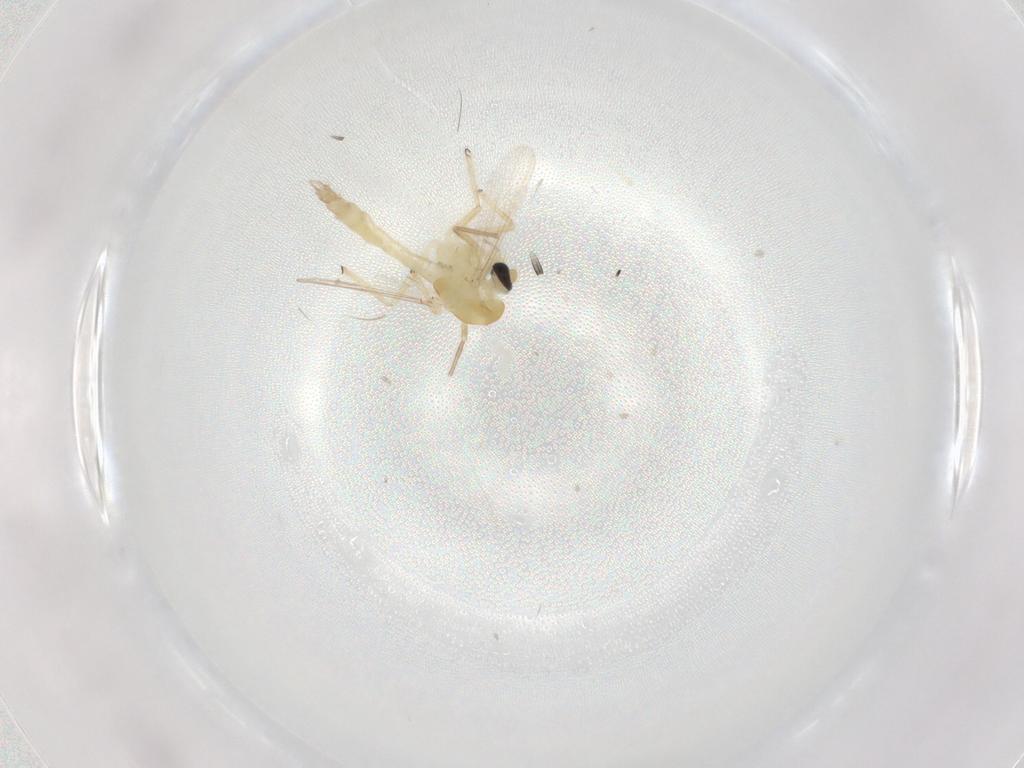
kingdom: Animalia
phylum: Arthropoda
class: Insecta
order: Diptera
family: Chironomidae
